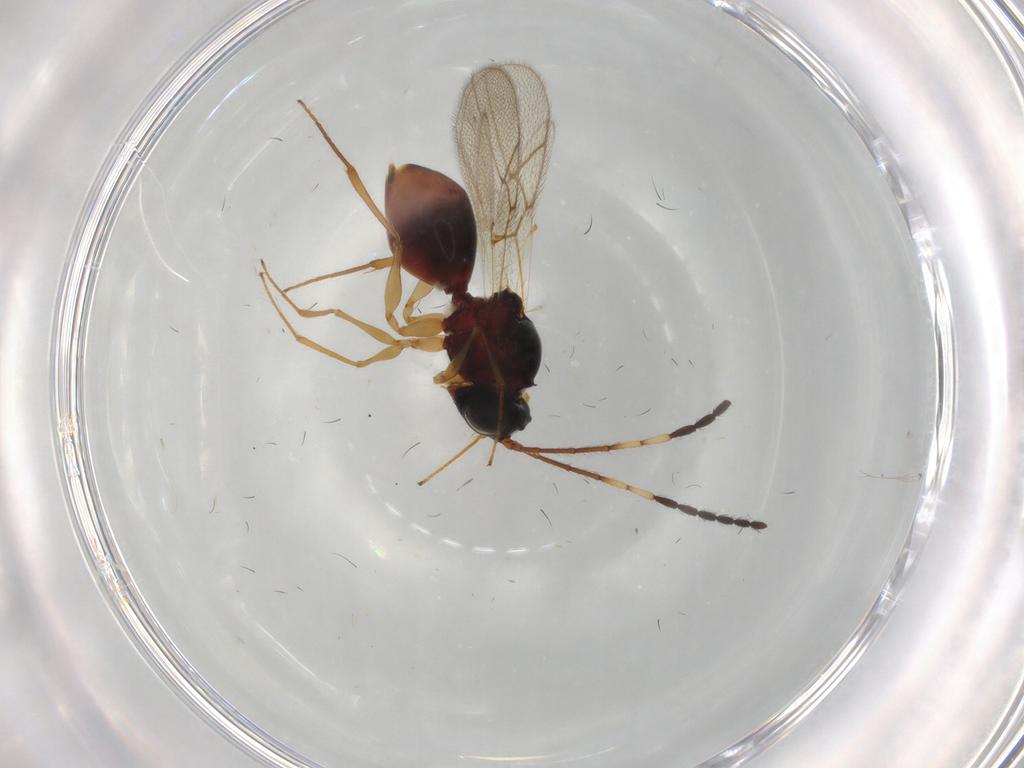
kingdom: Animalia
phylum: Arthropoda
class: Insecta
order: Hymenoptera
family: Figitidae
